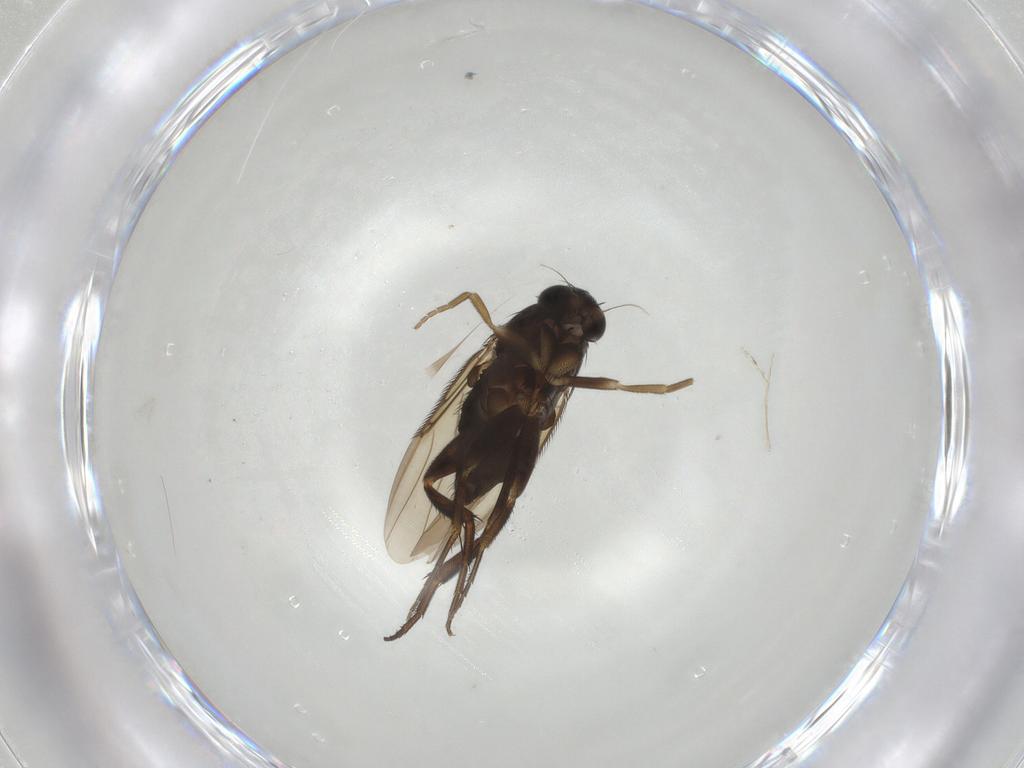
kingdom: Animalia
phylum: Arthropoda
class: Insecta
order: Diptera
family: Phoridae
